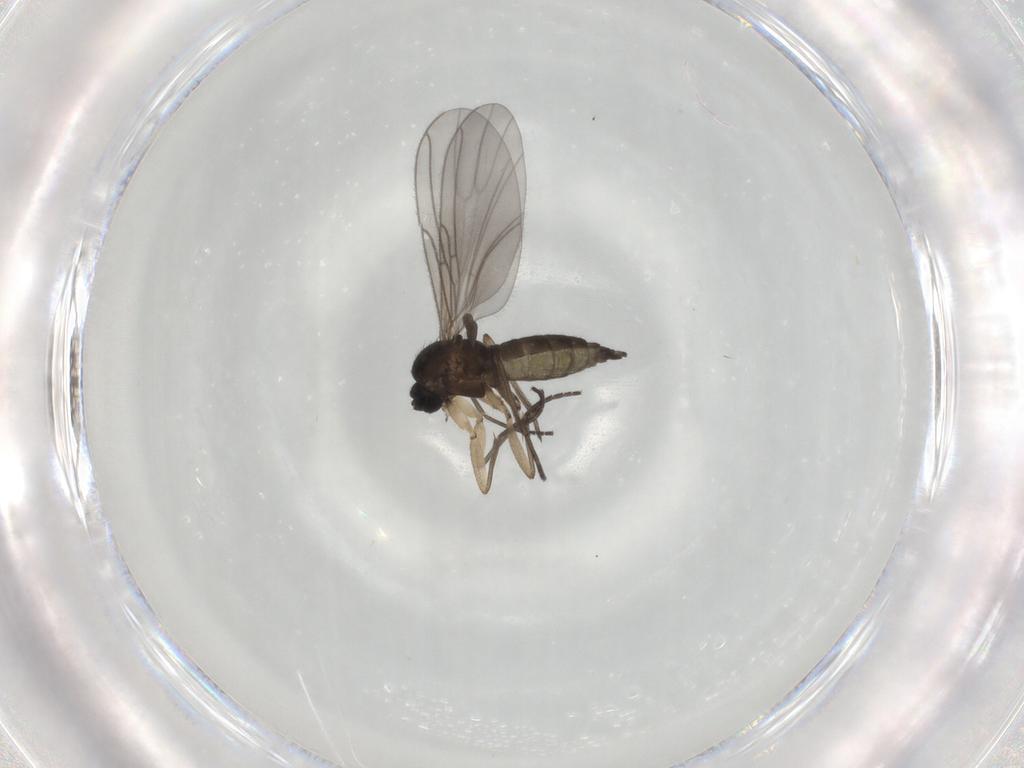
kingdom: Animalia
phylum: Arthropoda
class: Insecta
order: Diptera
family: Sciaridae
